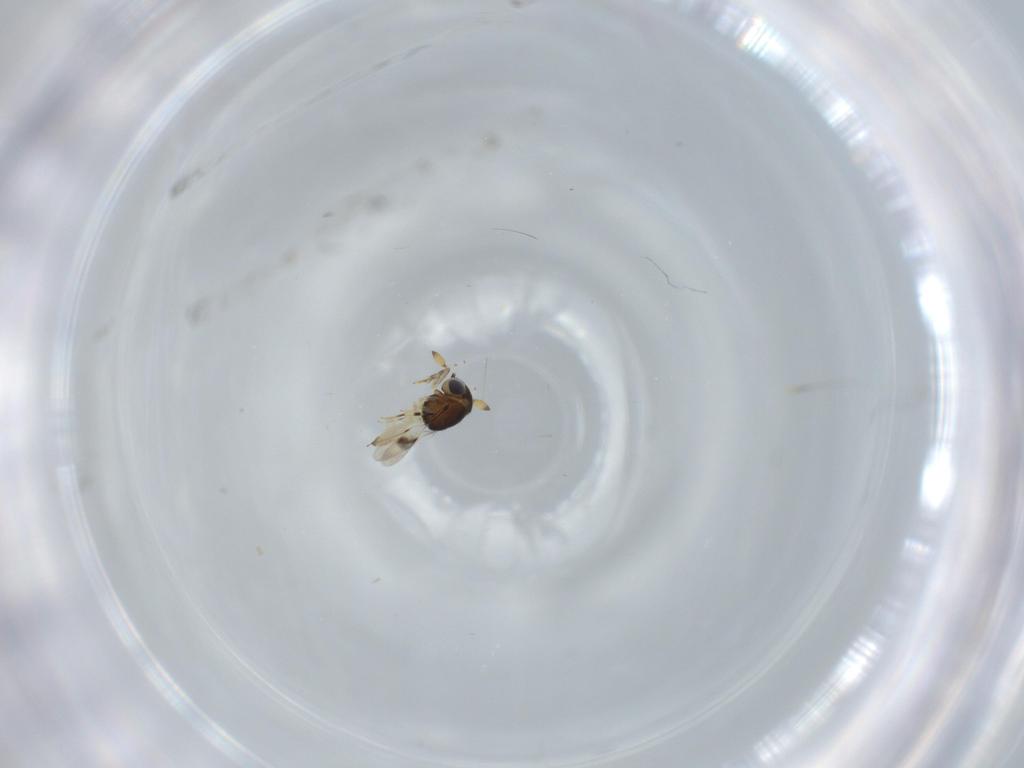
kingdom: Animalia
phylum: Arthropoda
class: Insecta
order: Hymenoptera
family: Scelionidae
